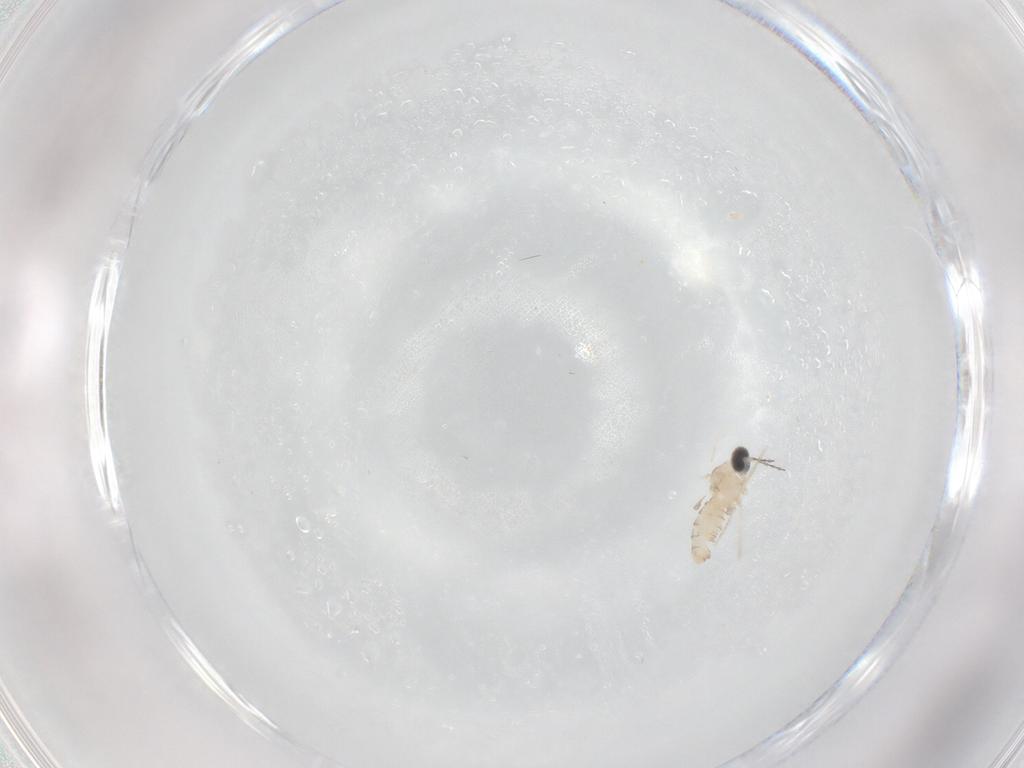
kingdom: Animalia
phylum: Arthropoda
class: Insecta
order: Diptera
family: Cecidomyiidae
